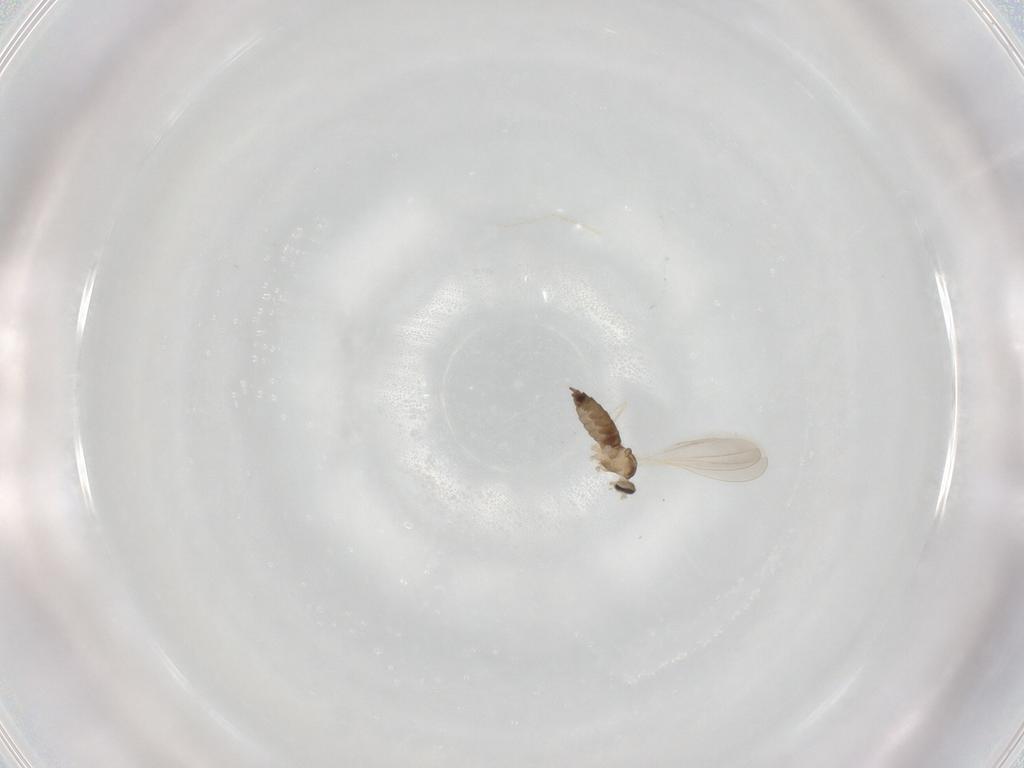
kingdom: Animalia
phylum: Arthropoda
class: Insecta
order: Diptera
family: Cecidomyiidae
